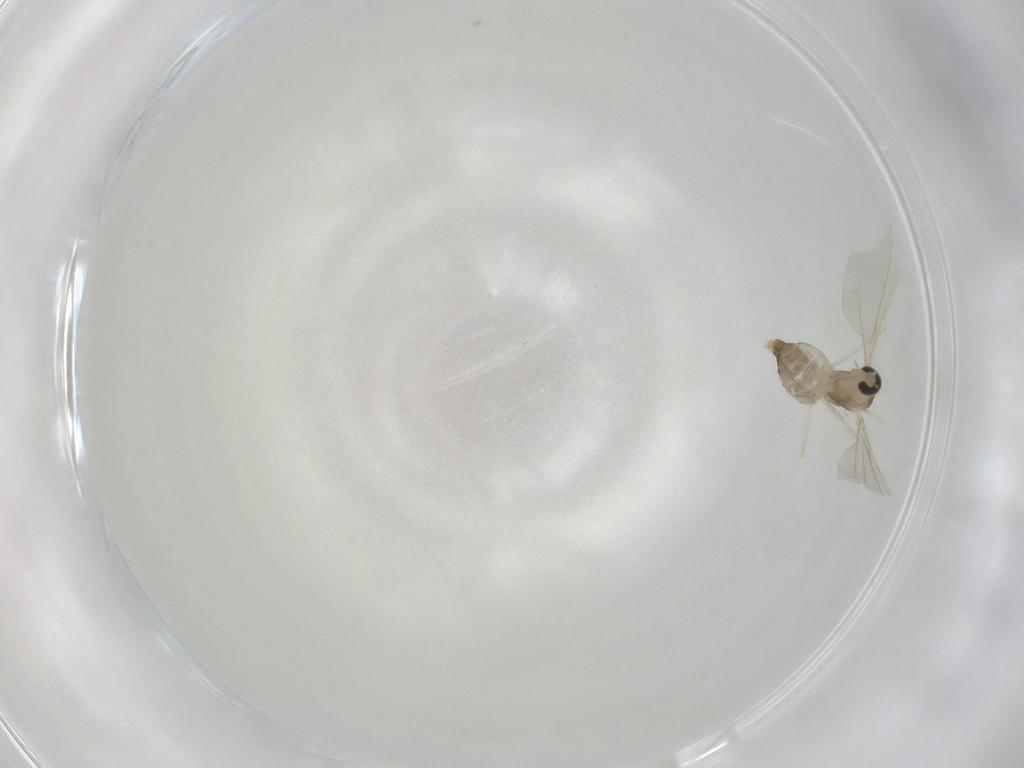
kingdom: Animalia
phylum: Arthropoda
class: Insecta
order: Diptera
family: Cecidomyiidae
